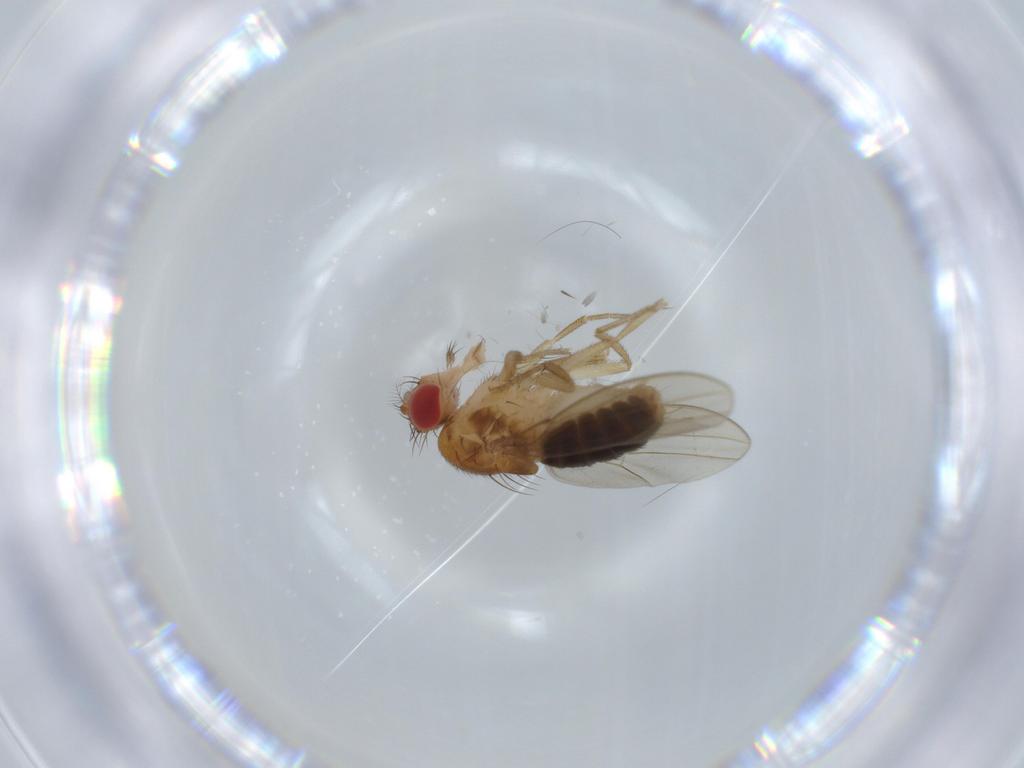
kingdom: Animalia
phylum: Arthropoda
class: Insecta
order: Diptera
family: Drosophilidae
